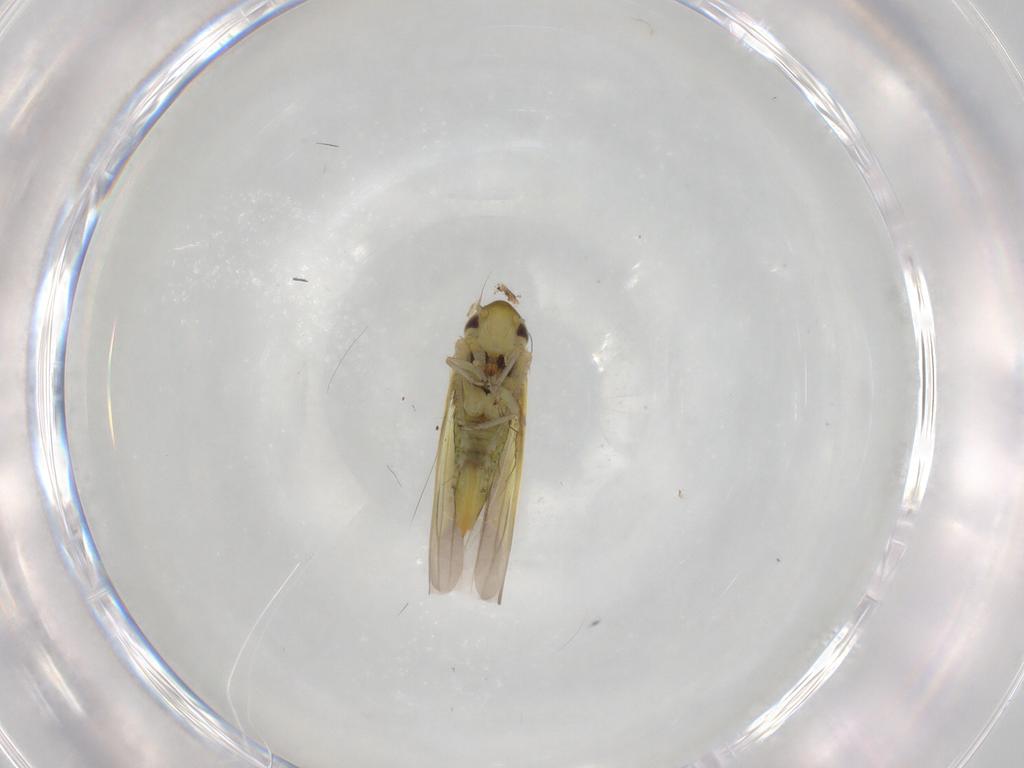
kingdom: Animalia
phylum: Arthropoda
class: Insecta
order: Hemiptera
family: Cicadellidae
